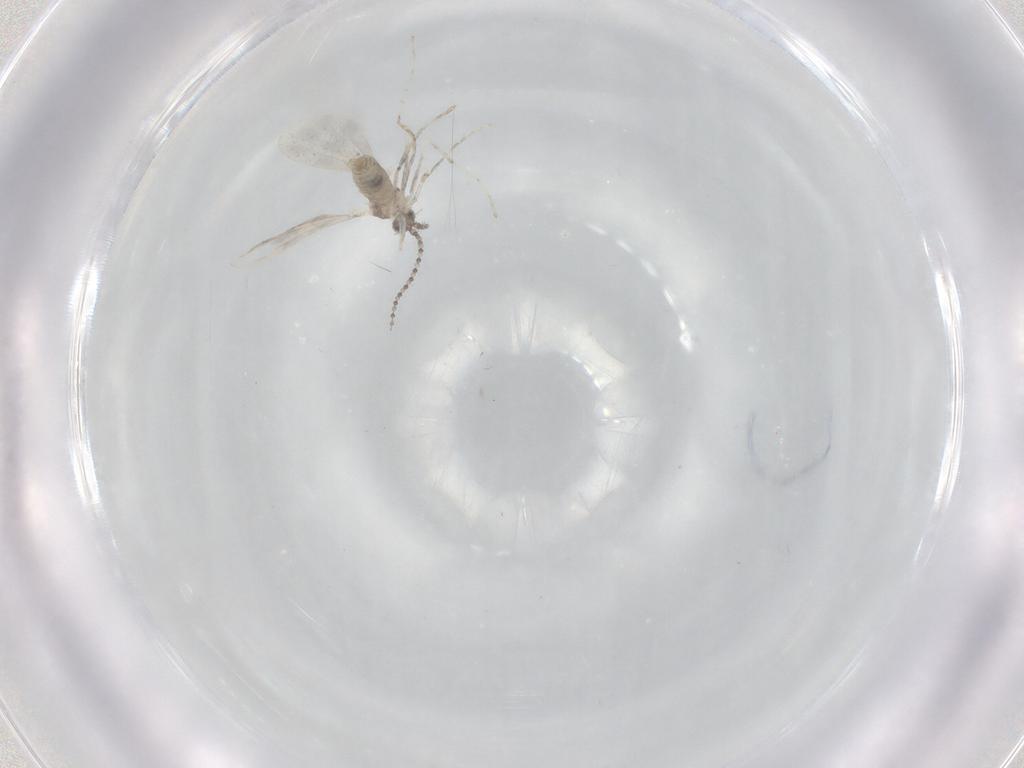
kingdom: Animalia
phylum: Arthropoda
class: Insecta
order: Diptera
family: Cecidomyiidae
